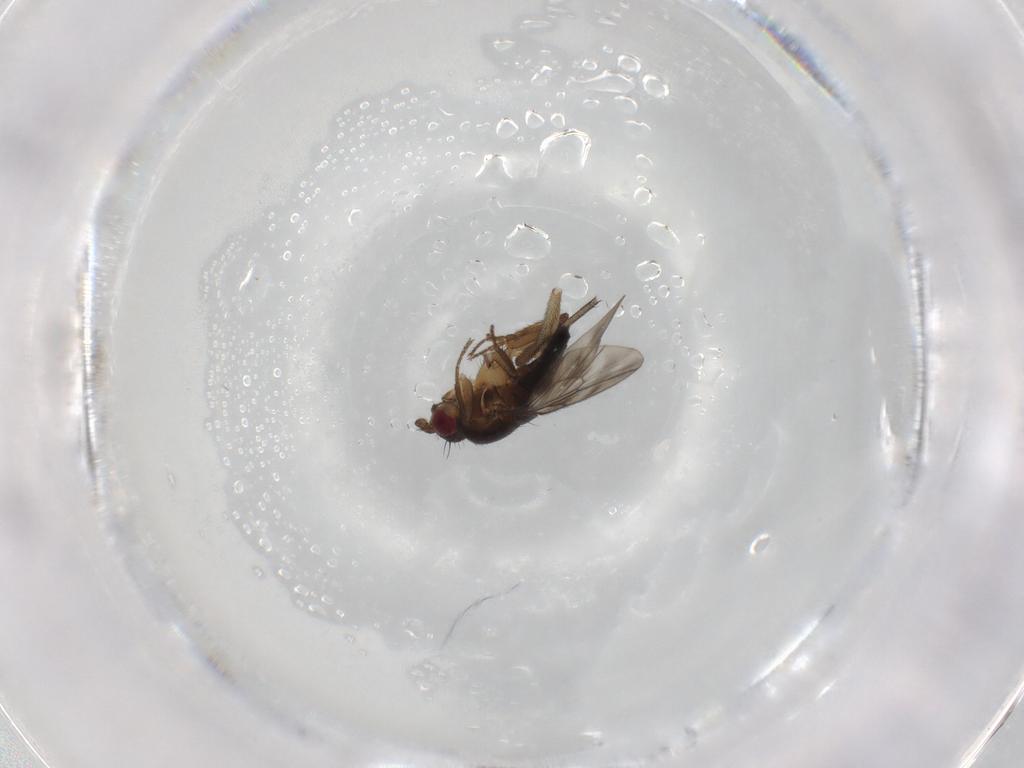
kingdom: Animalia
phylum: Arthropoda
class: Insecta
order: Diptera
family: Sphaeroceridae
